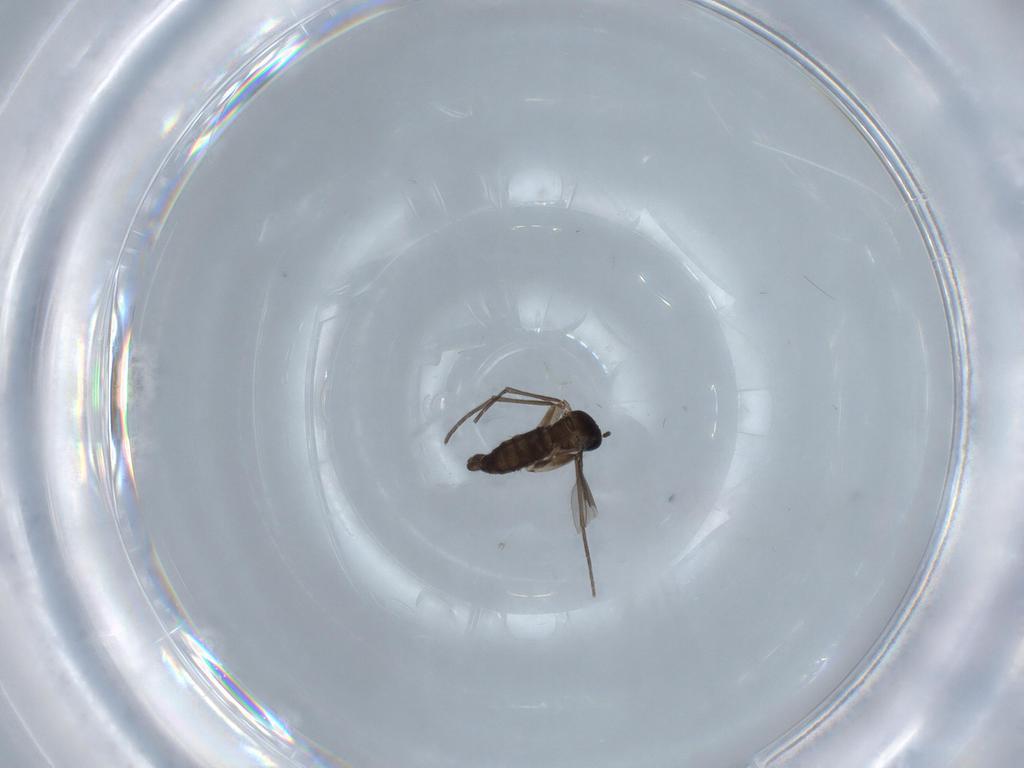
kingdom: Animalia
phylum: Arthropoda
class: Insecta
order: Diptera
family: Sciaridae
